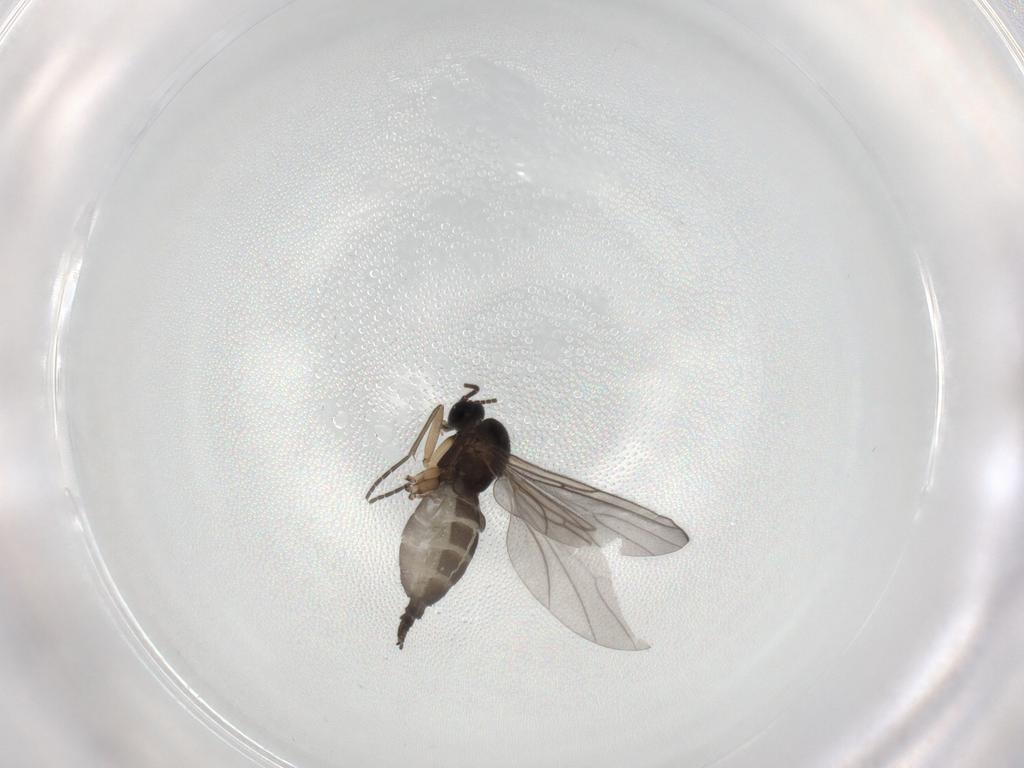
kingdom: Animalia
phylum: Arthropoda
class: Insecta
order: Diptera
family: Sciaridae
